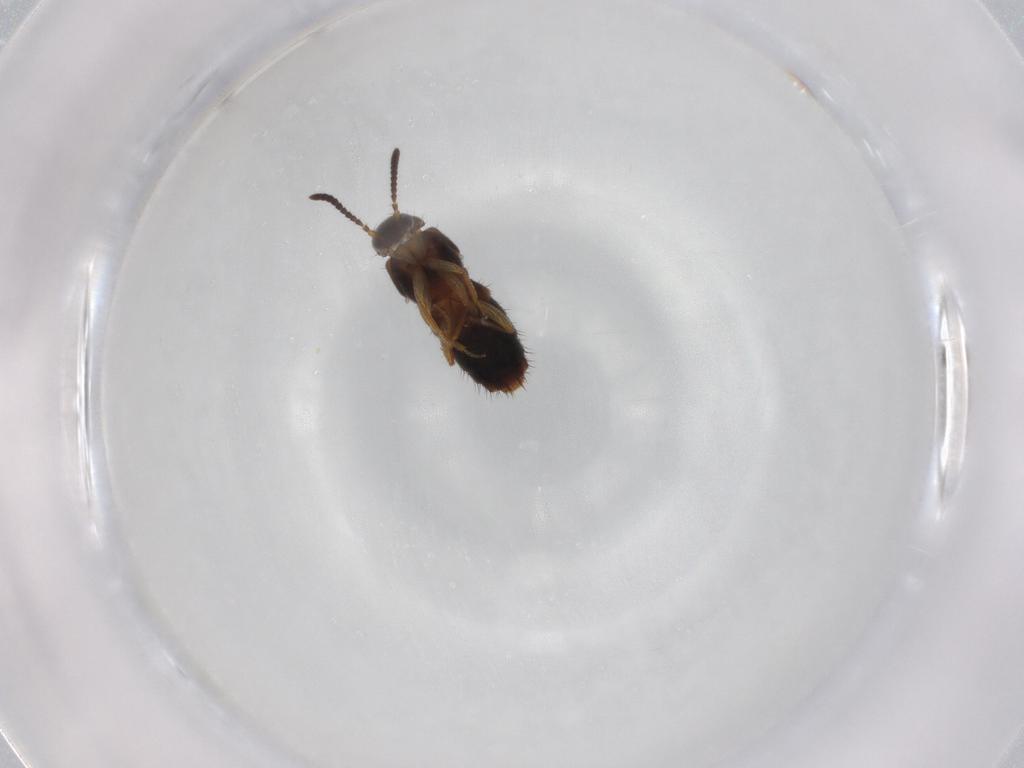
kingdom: Animalia
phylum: Arthropoda
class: Insecta
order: Coleoptera
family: Staphylinidae
